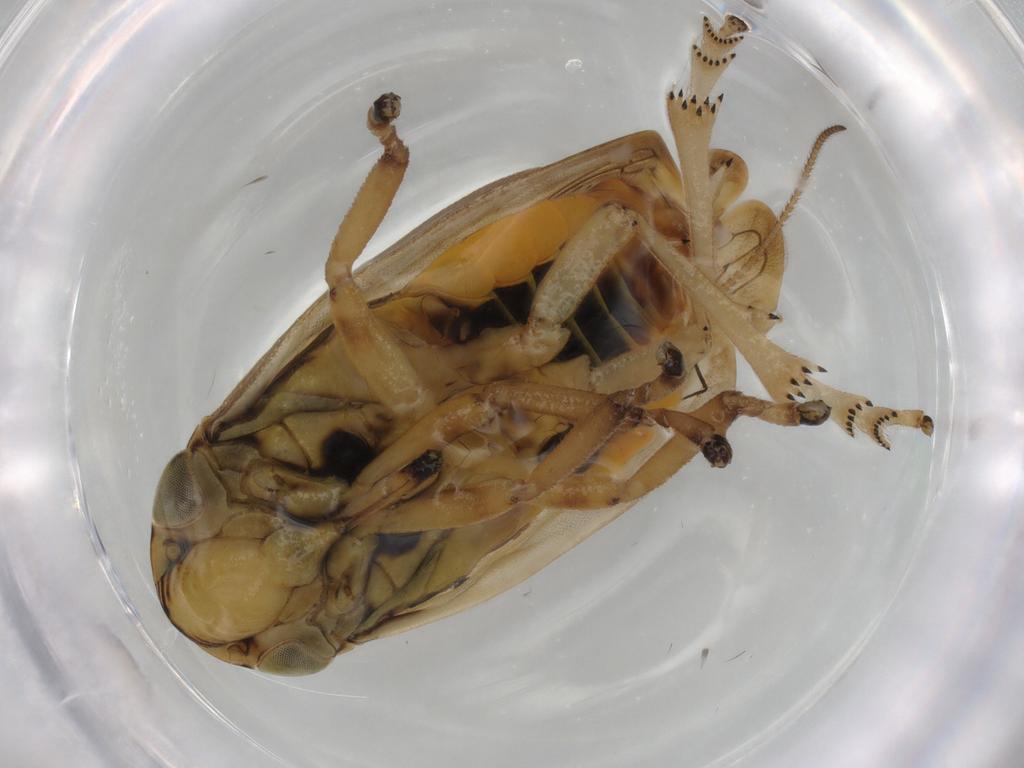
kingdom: Animalia
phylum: Arthropoda
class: Insecta
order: Hemiptera
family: Aphrophoridae
